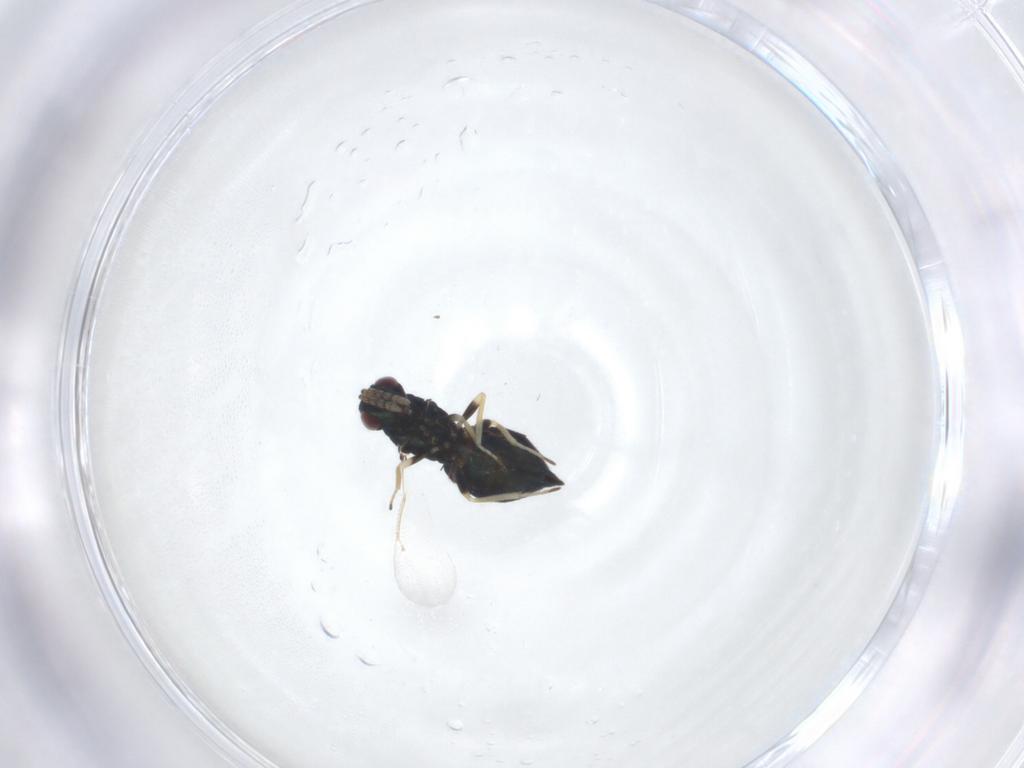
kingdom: Animalia
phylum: Arthropoda
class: Insecta
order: Hymenoptera
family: Eulophidae
